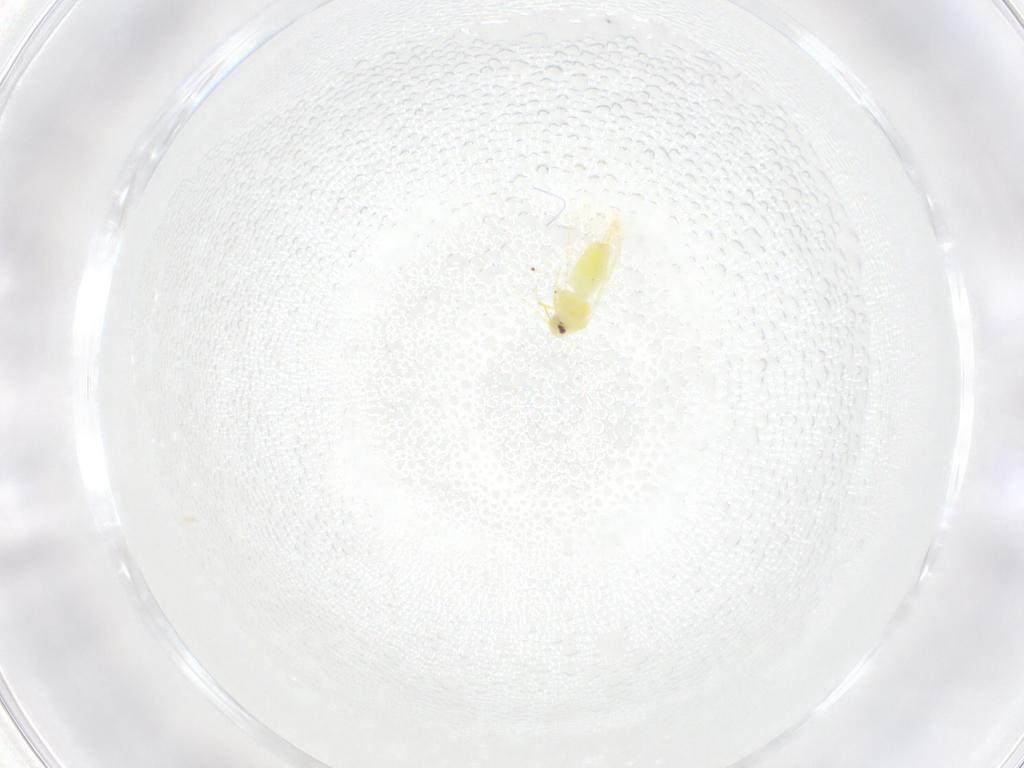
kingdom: Animalia
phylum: Arthropoda
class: Insecta
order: Hemiptera
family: Aleyrodidae
